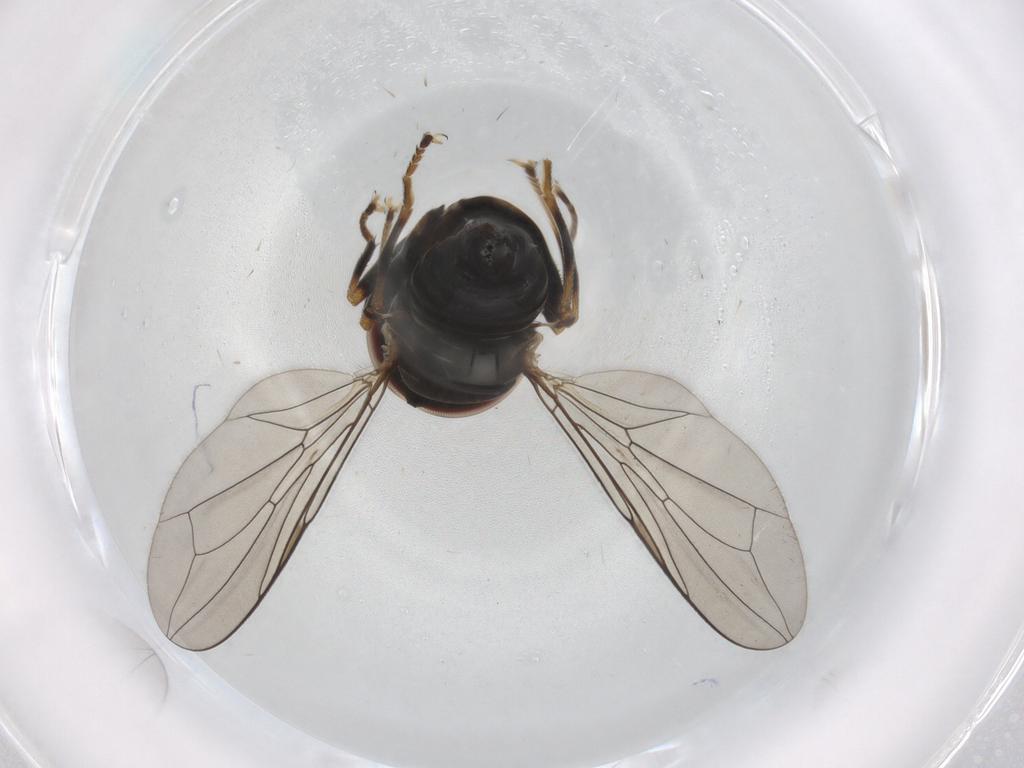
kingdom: Animalia
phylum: Arthropoda
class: Insecta
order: Diptera
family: Pipunculidae
